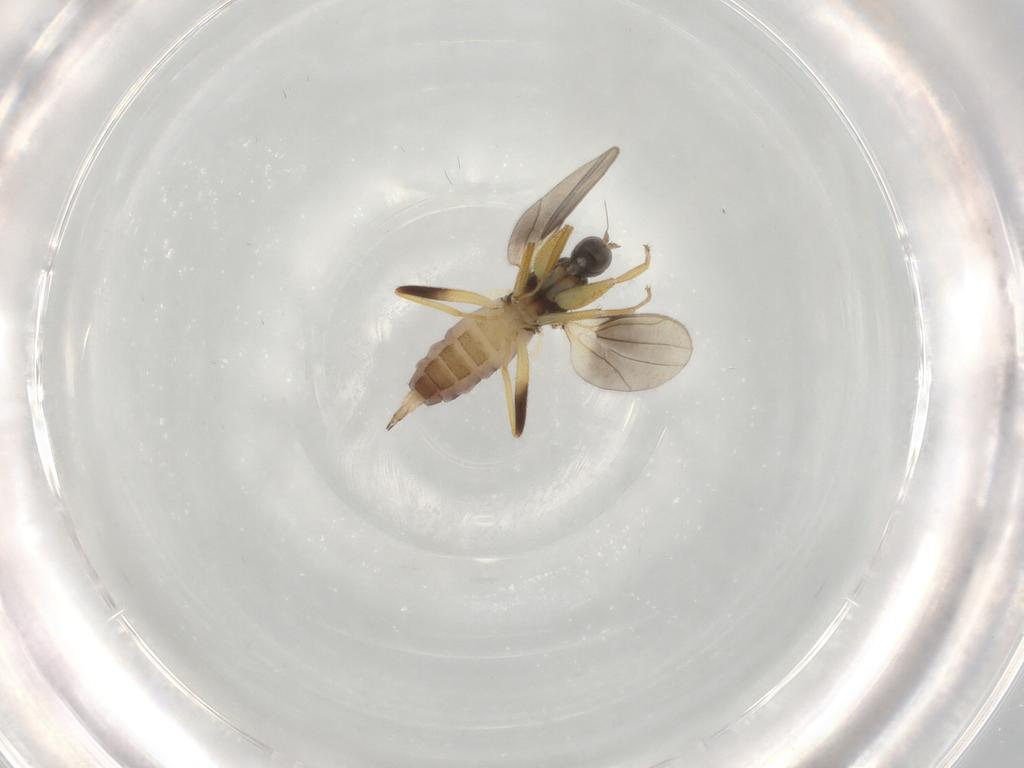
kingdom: Animalia
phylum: Arthropoda
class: Insecta
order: Diptera
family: Hybotidae
